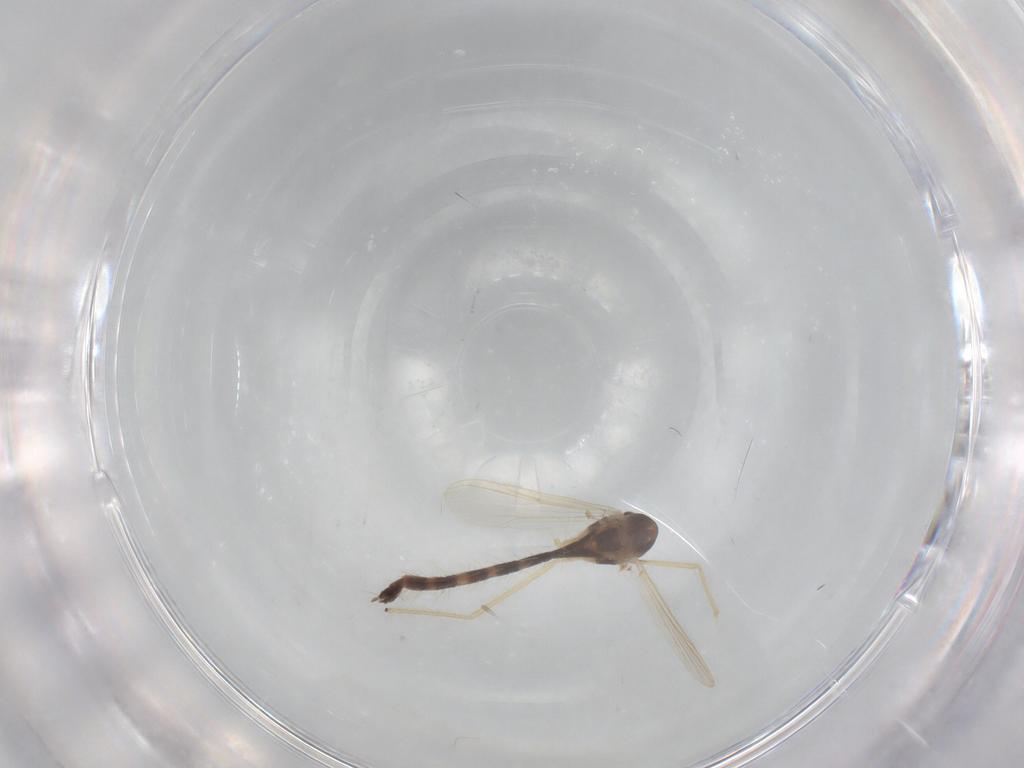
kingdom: Animalia
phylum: Arthropoda
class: Insecta
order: Diptera
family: Chironomidae
